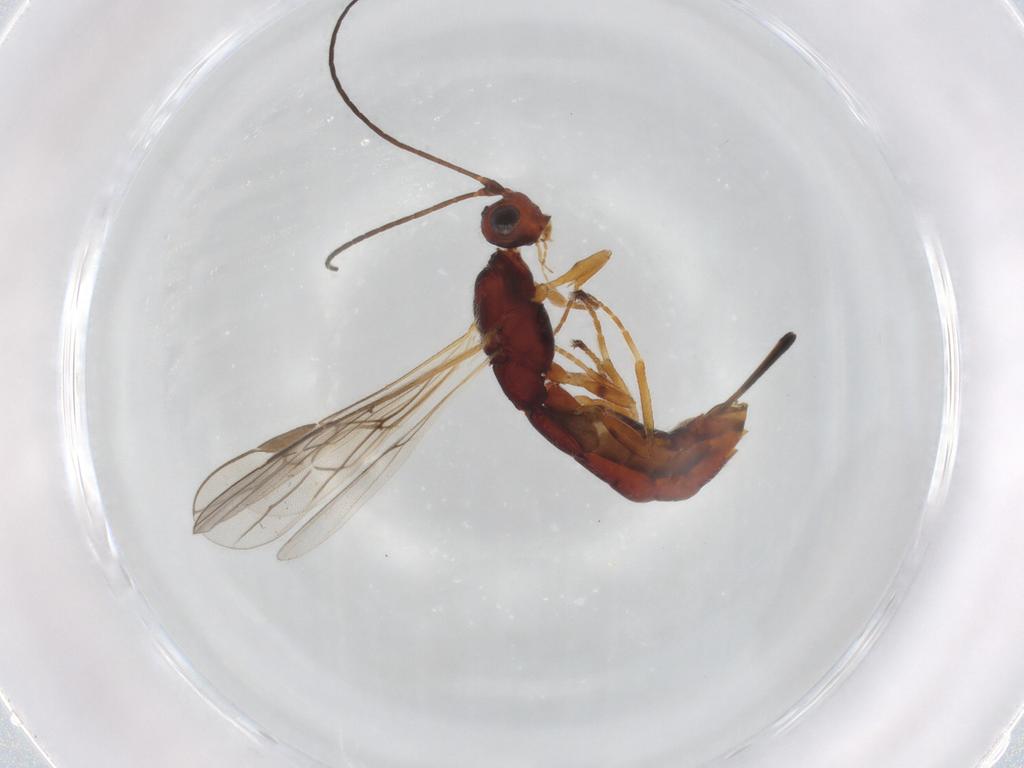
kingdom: Animalia
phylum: Arthropoda
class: Insecta
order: Hymenoptera
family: Braconidae
